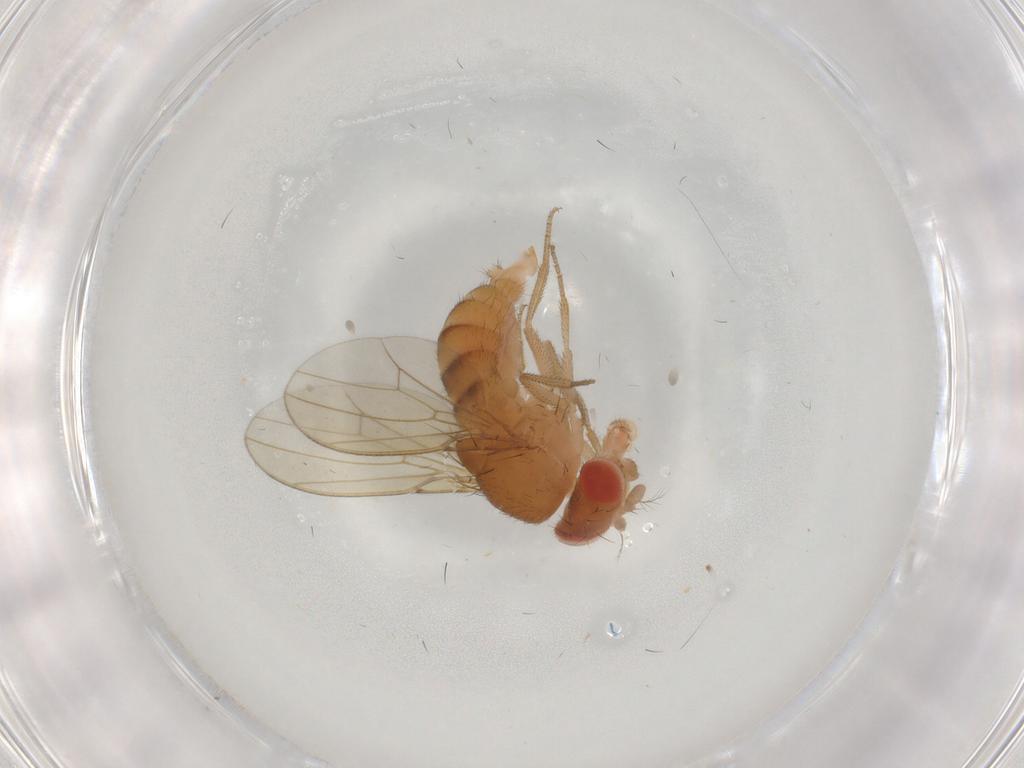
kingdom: Animalia
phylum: Arthropoda
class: Insecta
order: Diptera
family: Drosophilidae
